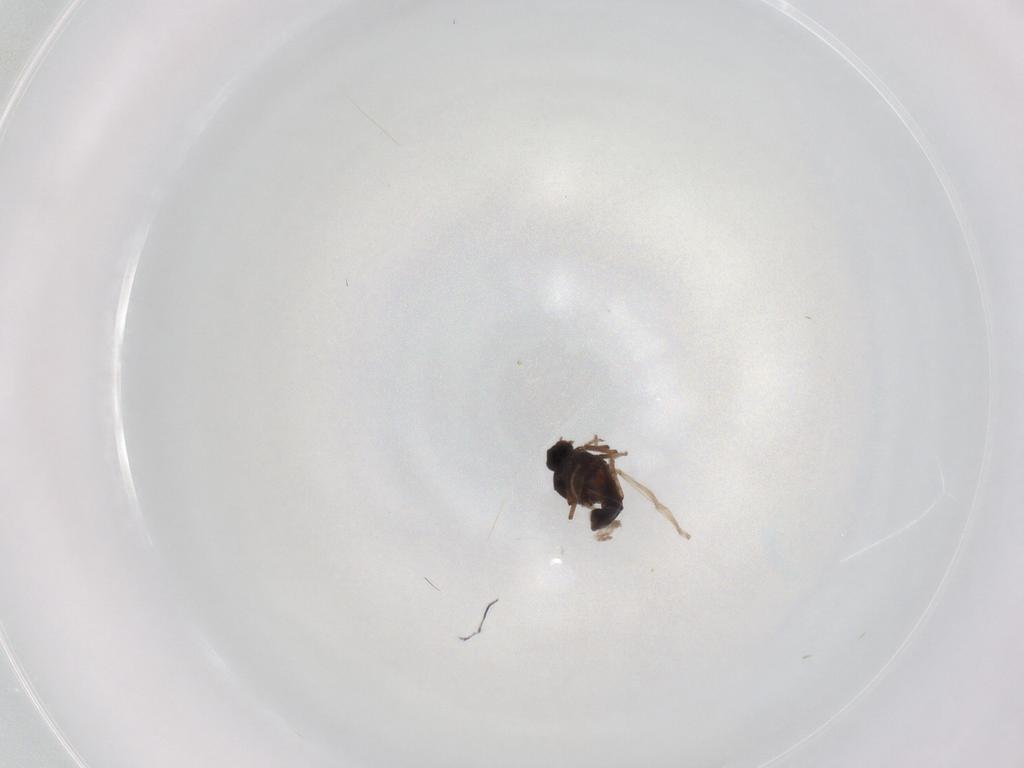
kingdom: Animalia
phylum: Arthropoda
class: Insecta
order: Diptera
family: Ceratopogonidae
